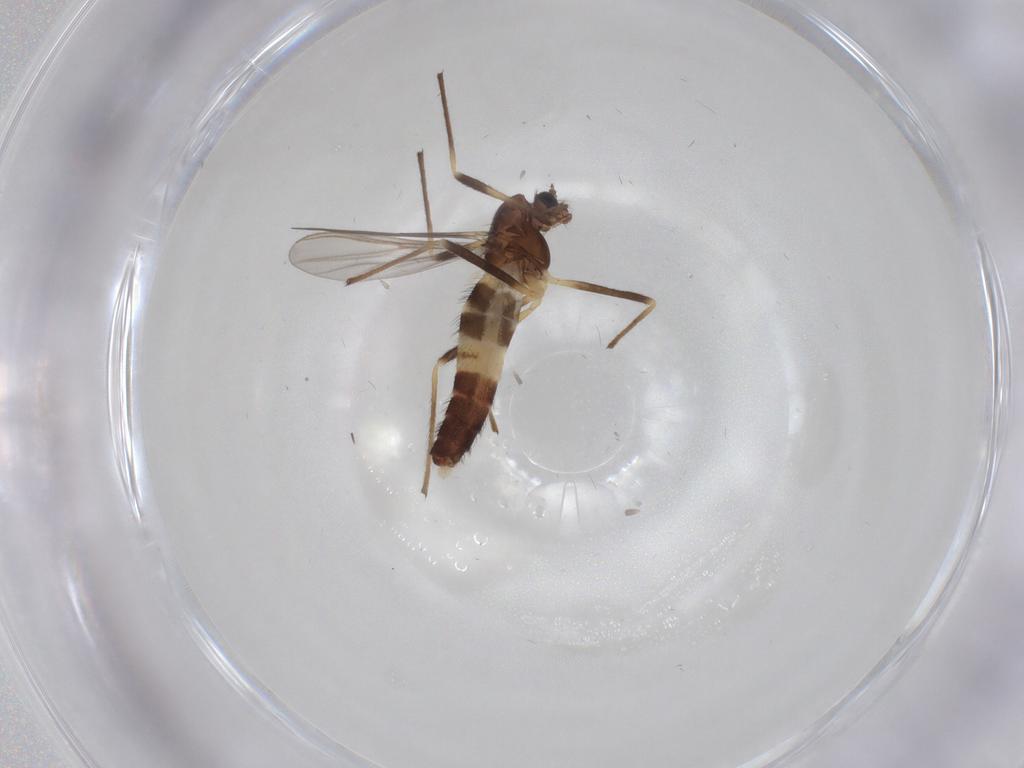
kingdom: Animalia
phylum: Arthropoda
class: Insecta
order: Diptera
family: Chironomidae
